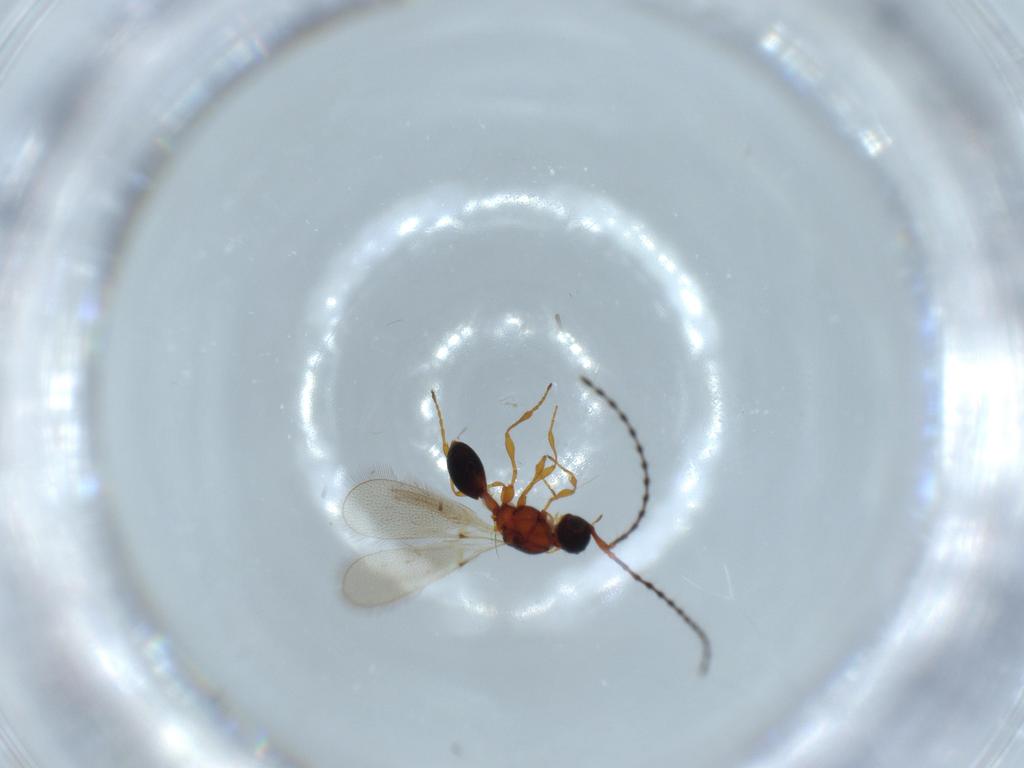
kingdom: Animalia
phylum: Arthropoda
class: Insecta
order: Hymenoptera
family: Diapriidae
